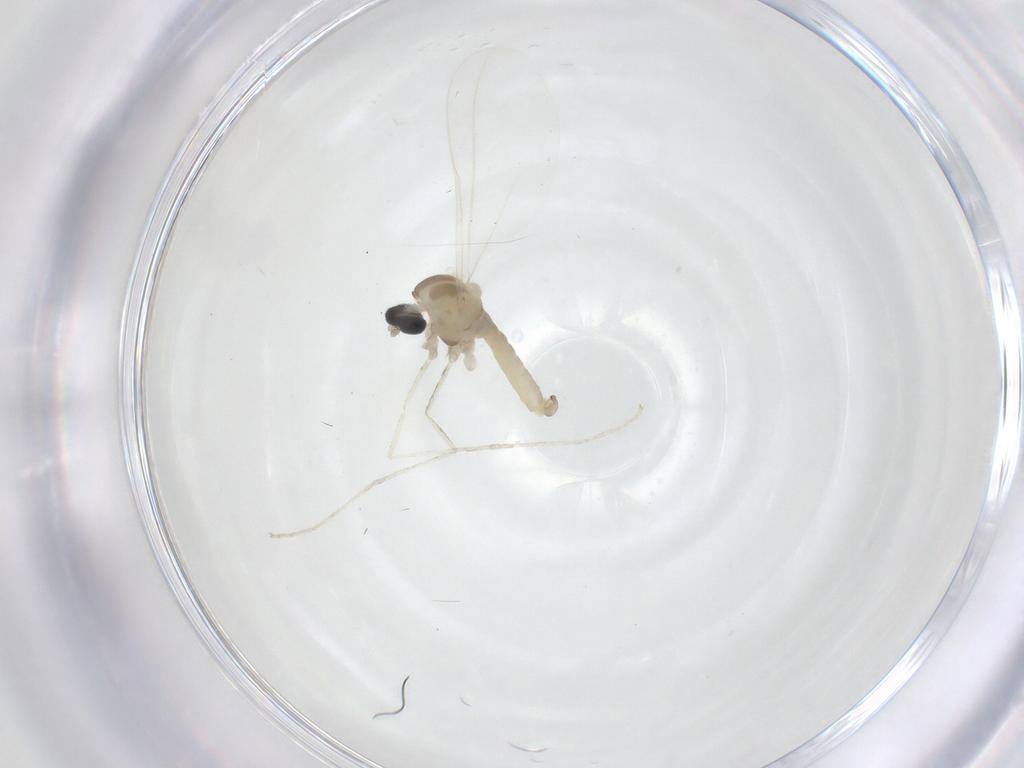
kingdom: Animalia
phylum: Arthropoda
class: Insecta
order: Diptera
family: Cecidomyiidae
